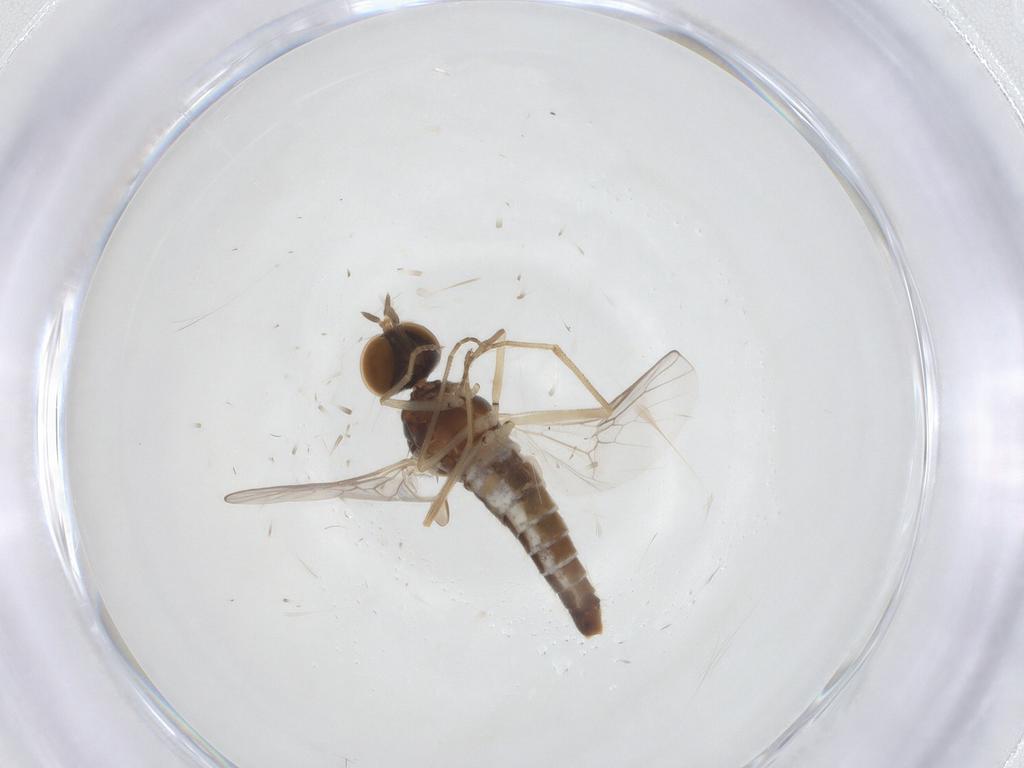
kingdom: Animalia
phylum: Arthropoda
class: Insecta
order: Diptera
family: Scenopinidae
